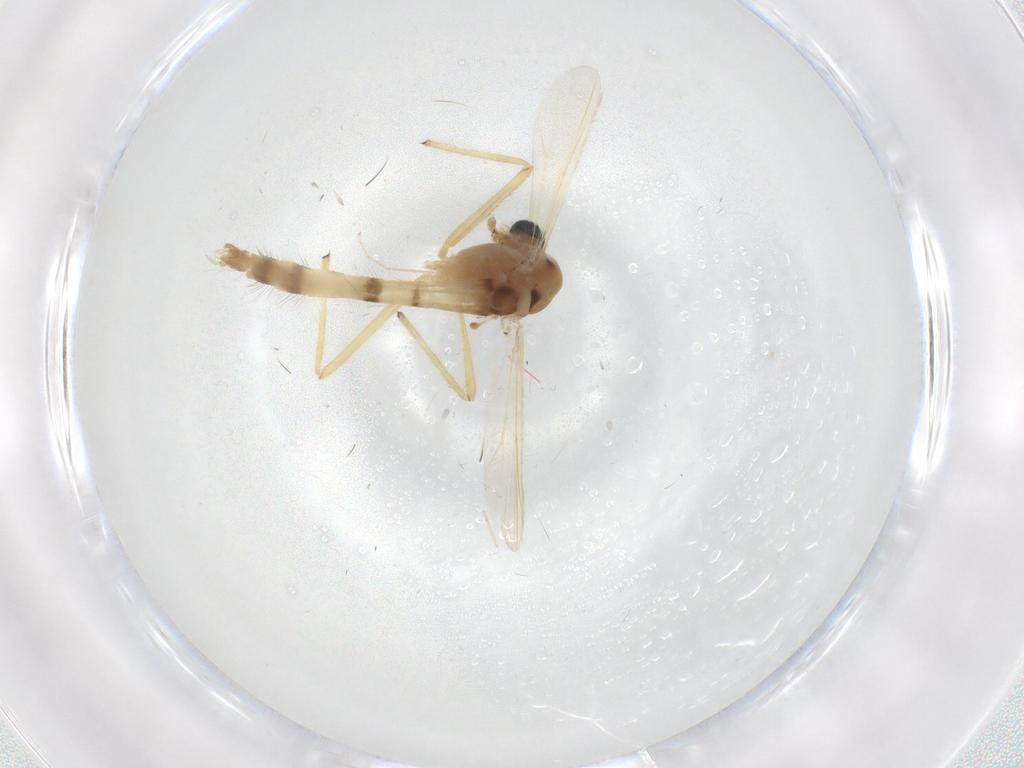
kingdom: Animalia
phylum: Arthropoda
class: Insecta
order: Diptera
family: Chironomidae
